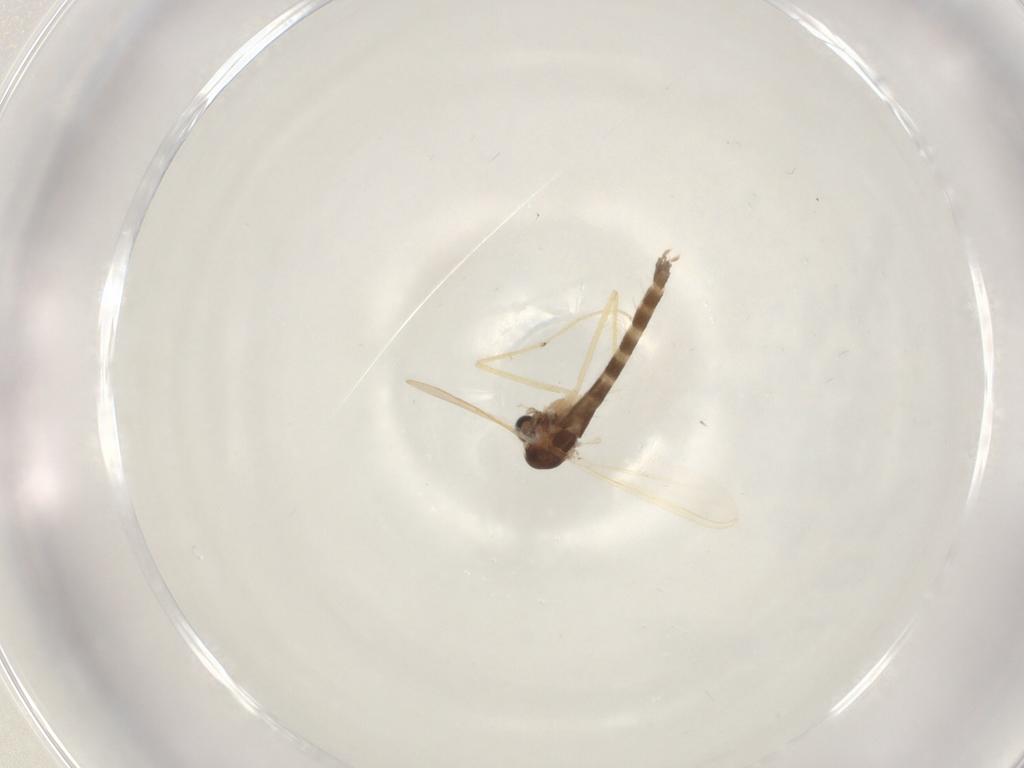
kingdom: Animalia
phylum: Arthropoda
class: Insecta
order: Diptera
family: Chironomidae
